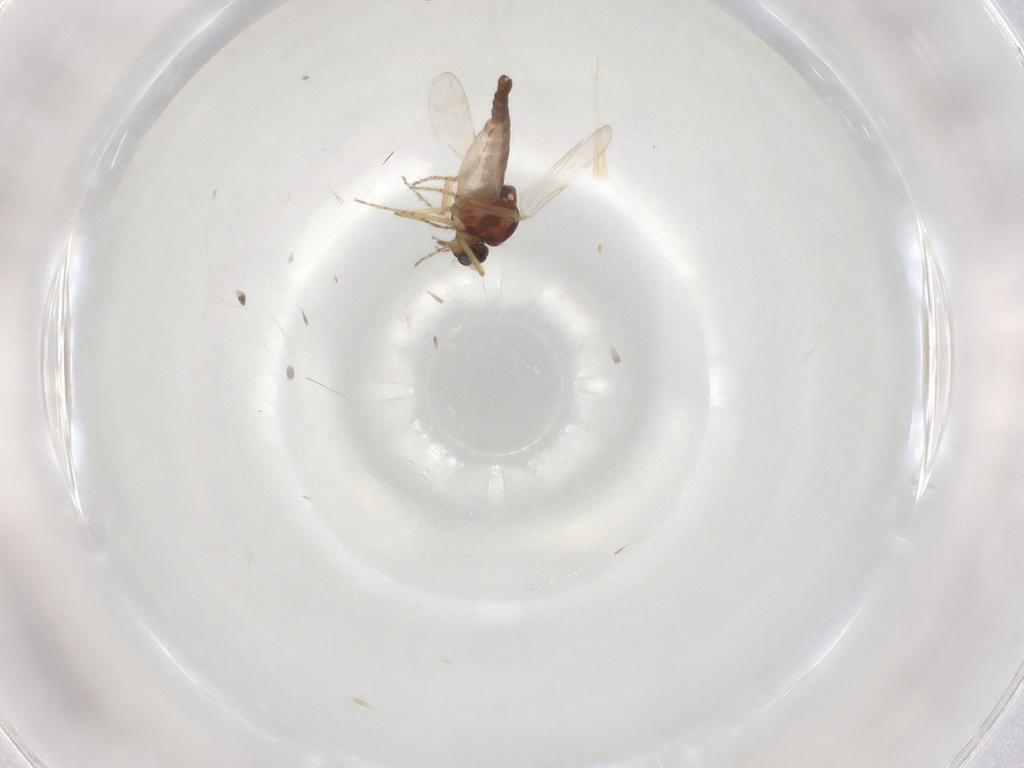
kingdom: Animalia
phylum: Arthropoda
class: Insecta
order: Diptera
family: Ceratopogonidae
